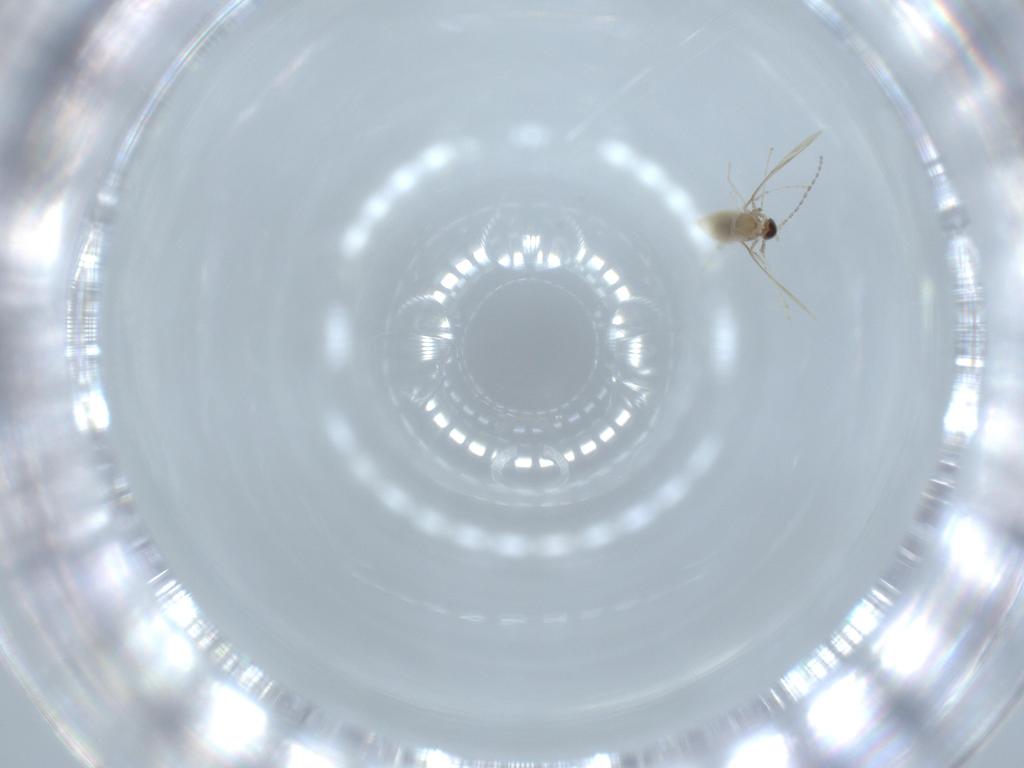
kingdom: Animalia
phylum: Arthropoda
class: Insecta
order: Diptera
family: Cecidomyiidae
